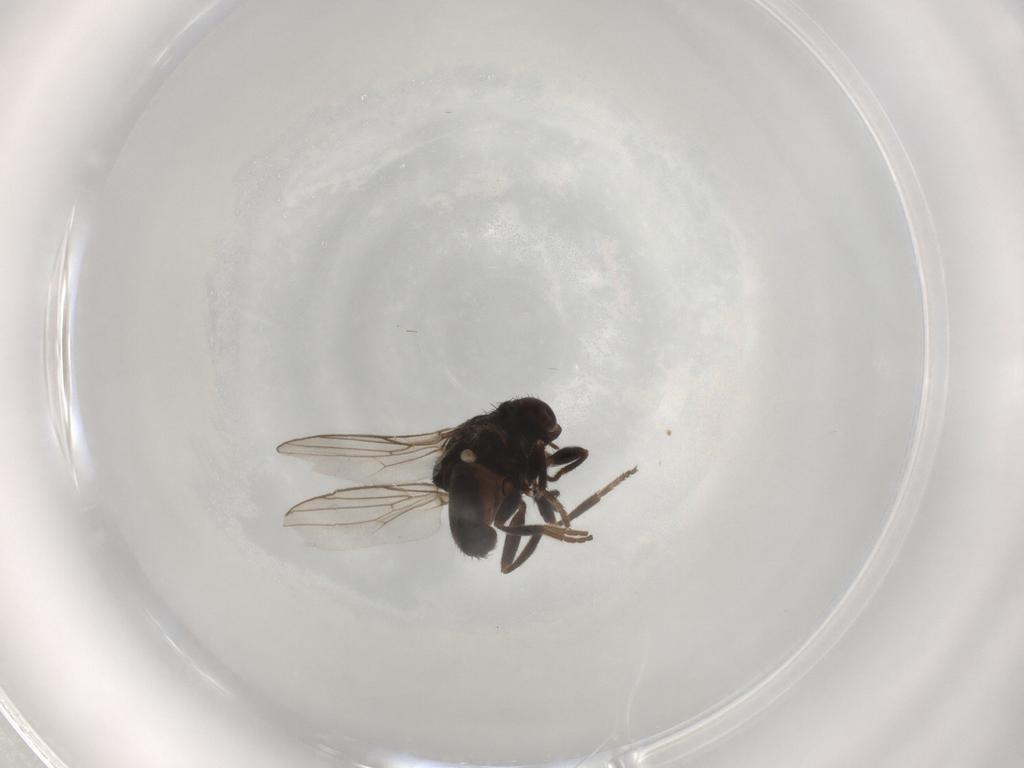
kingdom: Animalia
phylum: Arthropoda
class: Insecta
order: Diptera
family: Chloropidae
